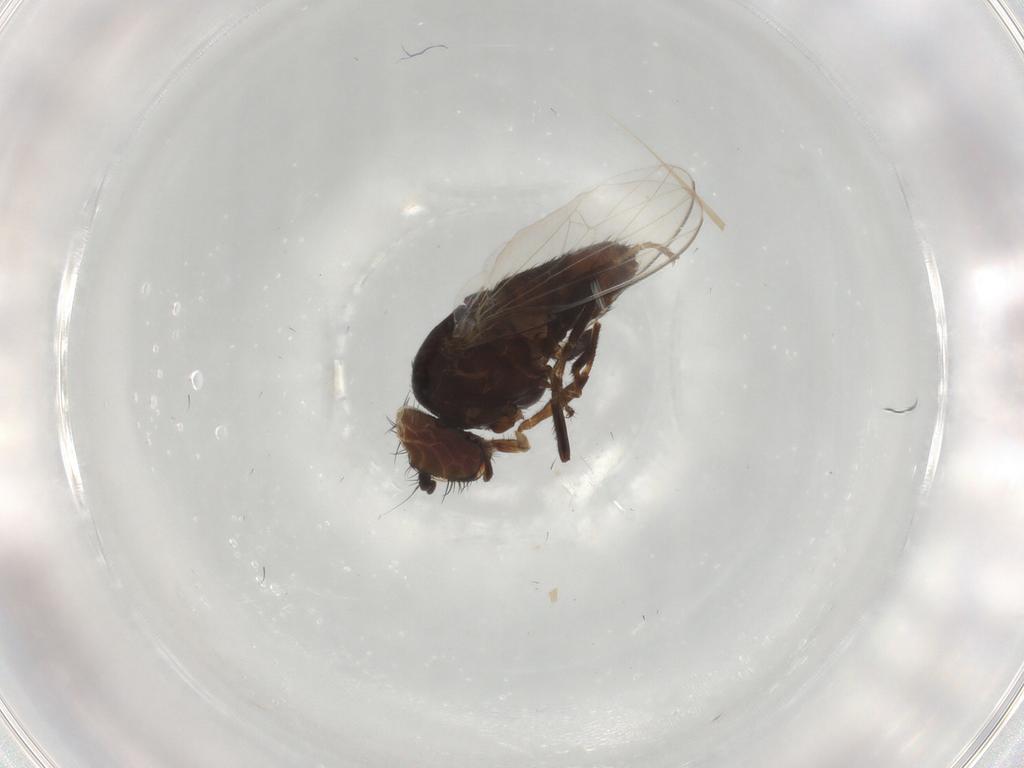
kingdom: Animalia
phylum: Arthropoda
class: Insecta
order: Diptera
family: Dolichopodidae
